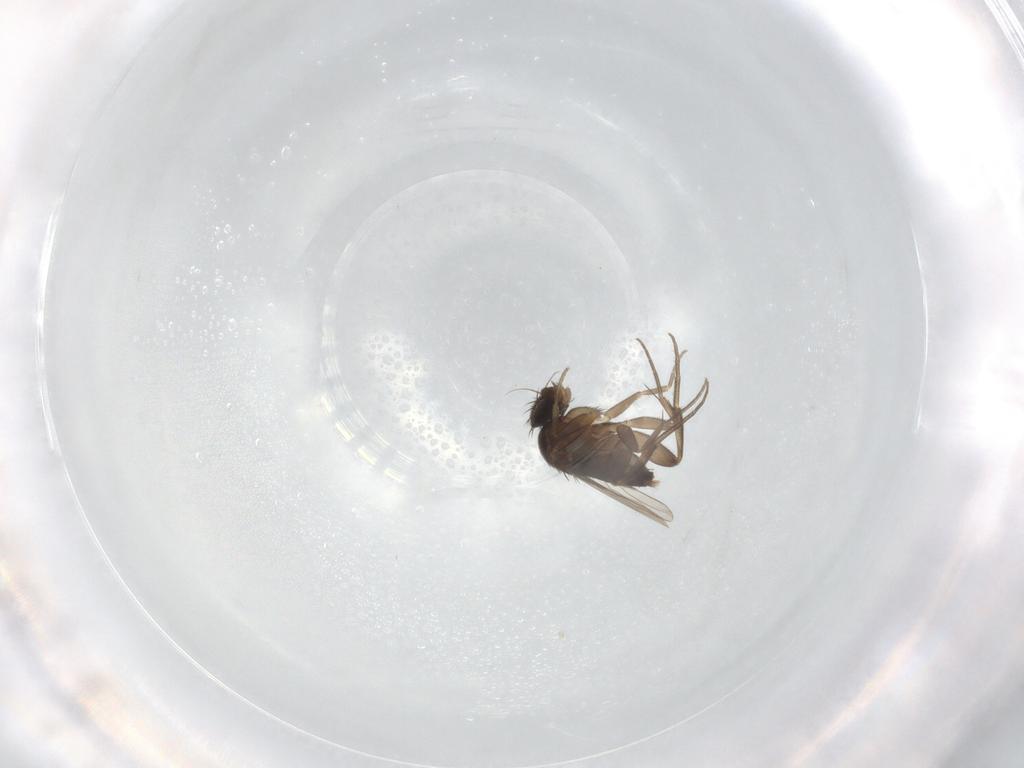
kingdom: Animalia
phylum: Arthropoda
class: Insecta
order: Diptera
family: Phoridae
